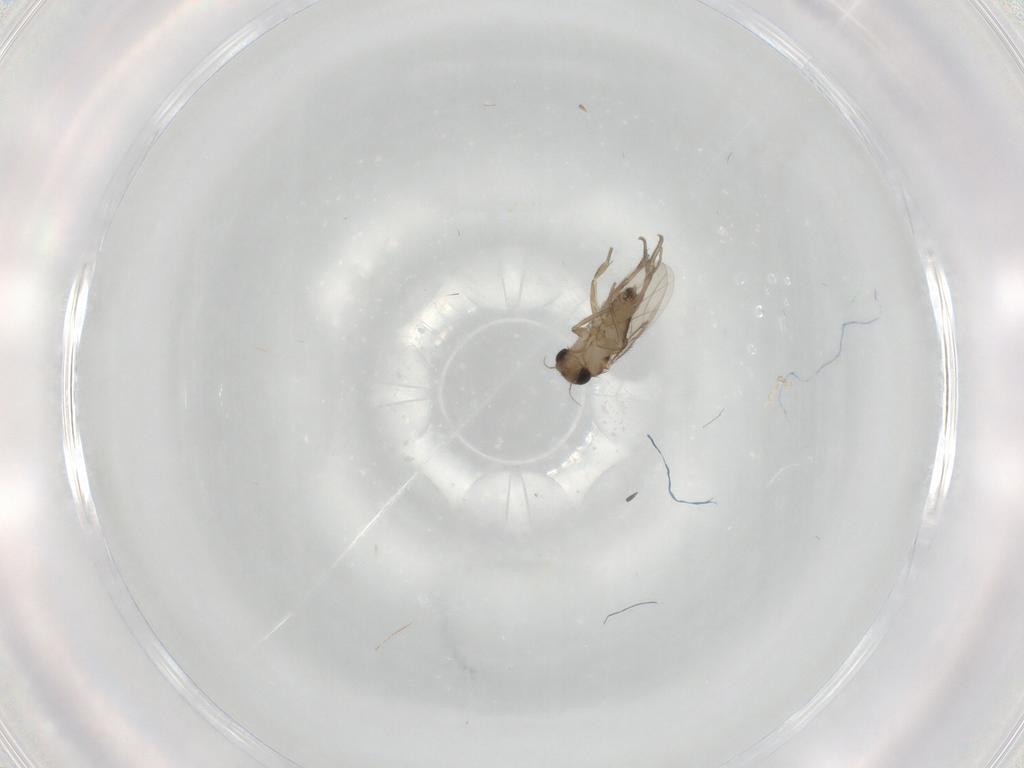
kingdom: Animalia
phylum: Arthropoda
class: Insecta
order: Diptera
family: Phoridae
